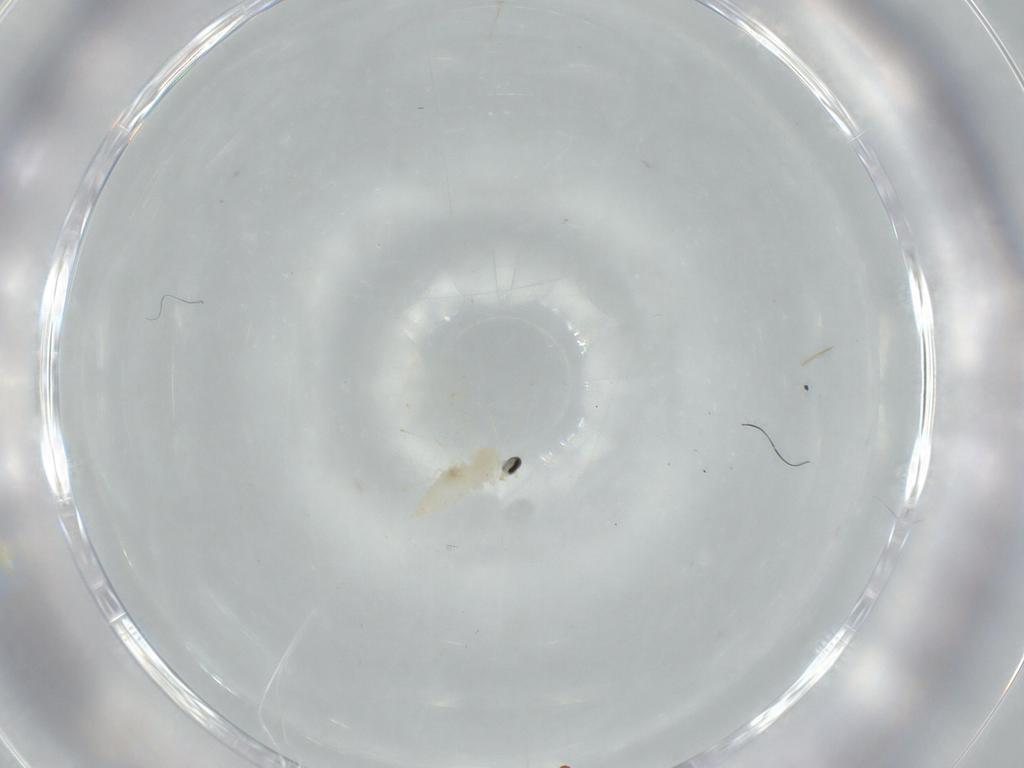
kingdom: Animalia
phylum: Arthropoda
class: Insecta
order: Diptera
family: Cecidomyiidae
